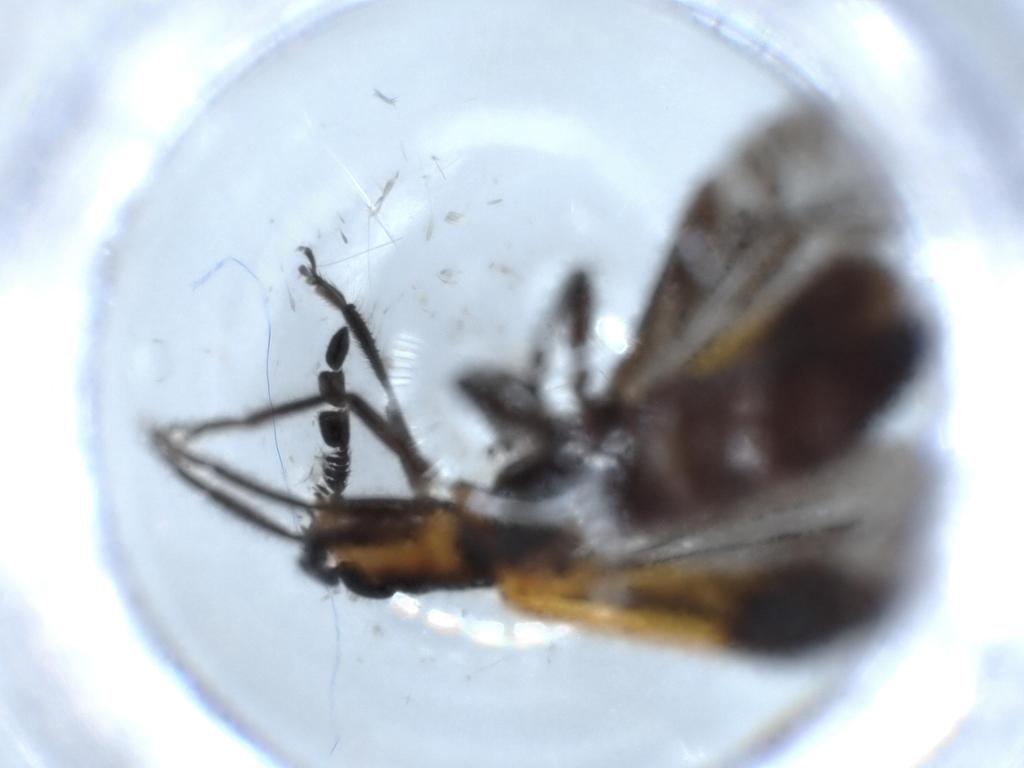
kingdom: Animalia
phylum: Arthropoda
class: Insecta
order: Coleoptera
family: Cleridae
